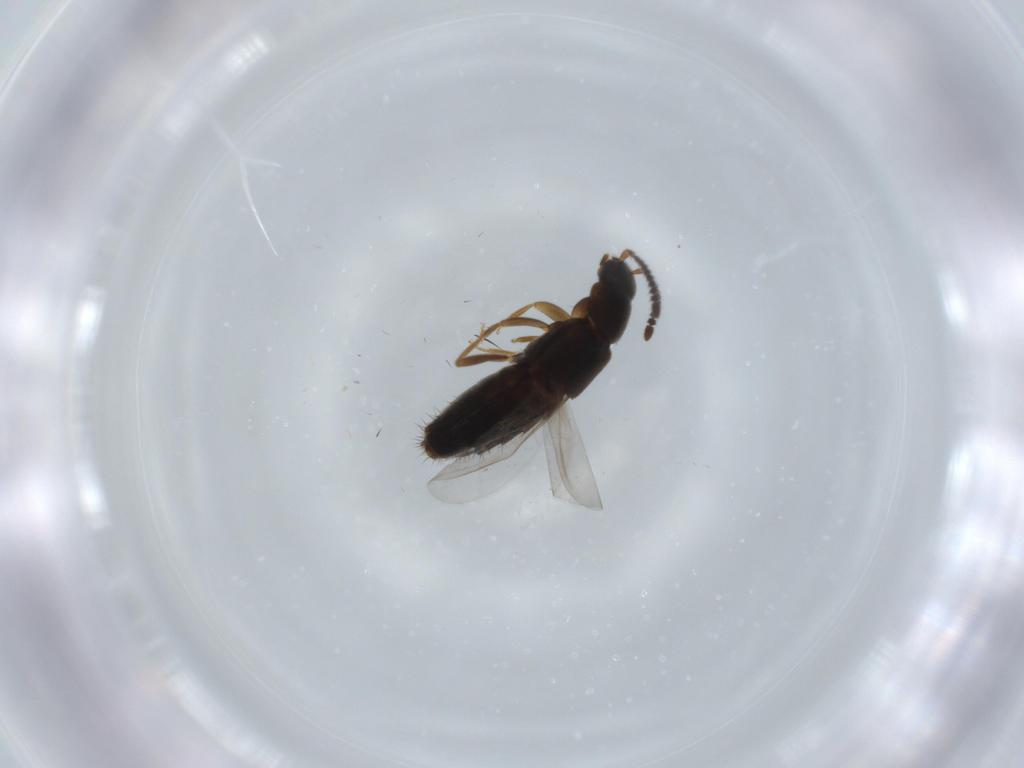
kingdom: Animalia
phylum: Arthropoda
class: Insecta
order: Coleoptera
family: Staphylinidae
